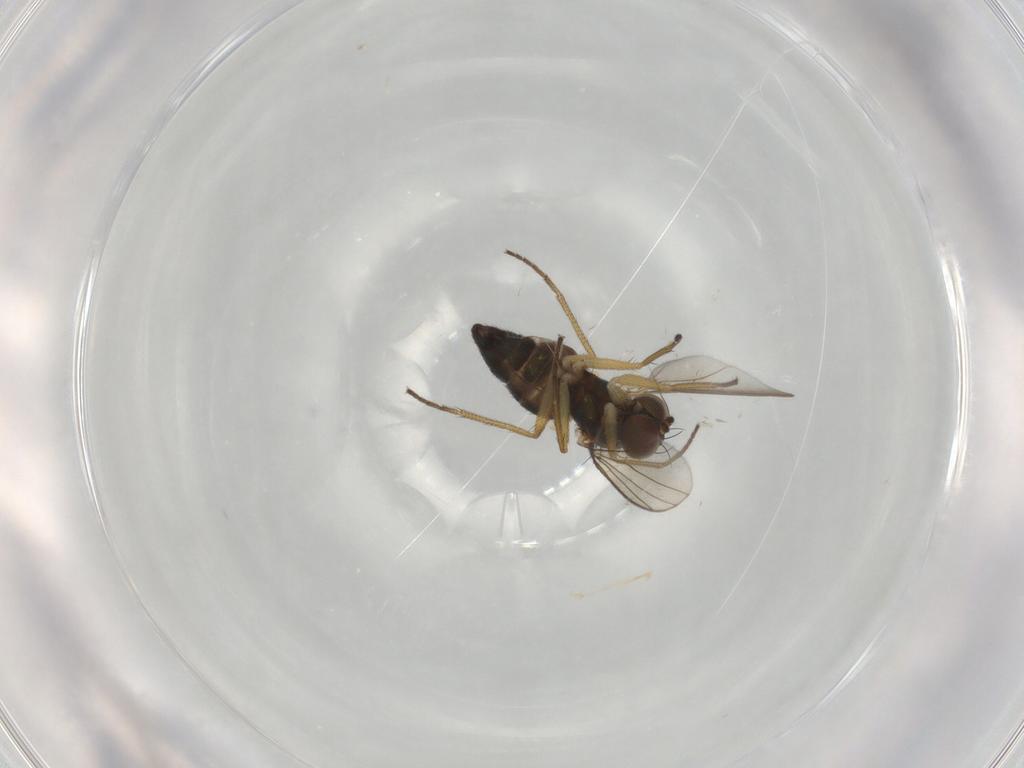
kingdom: Animalia
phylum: Arthropoda
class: Insecta
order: Diptera
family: Dolichopodidae
